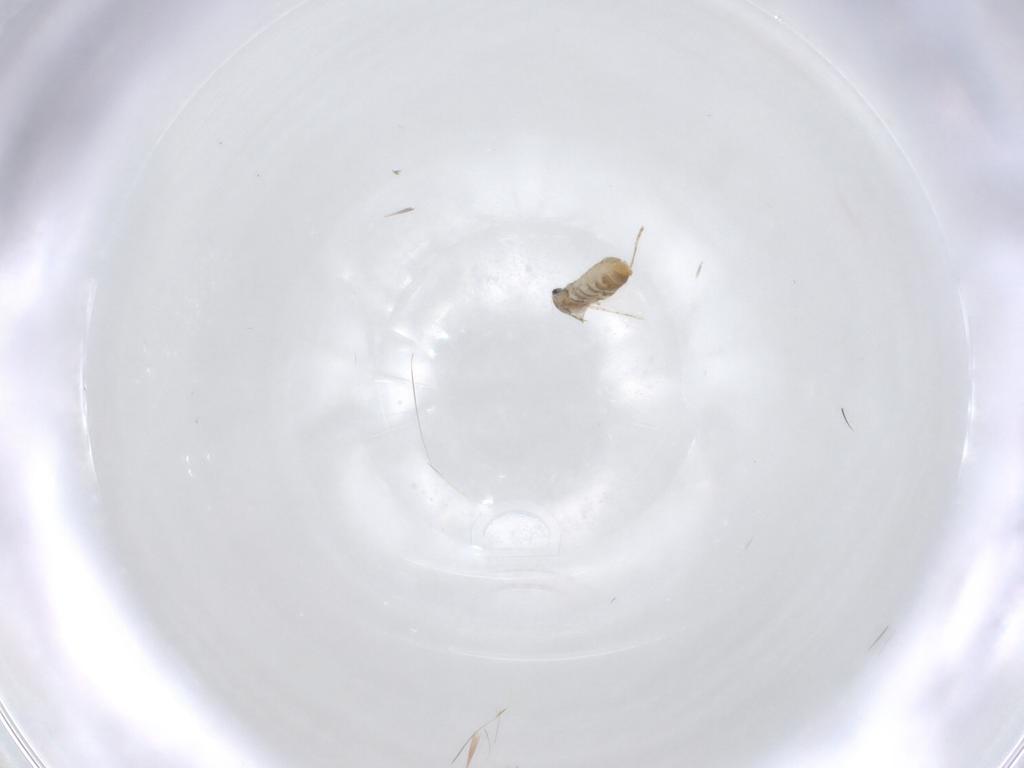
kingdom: Animalia
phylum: Arthropoda
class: Insecta
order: Diptera
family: Cecidomyiidae
